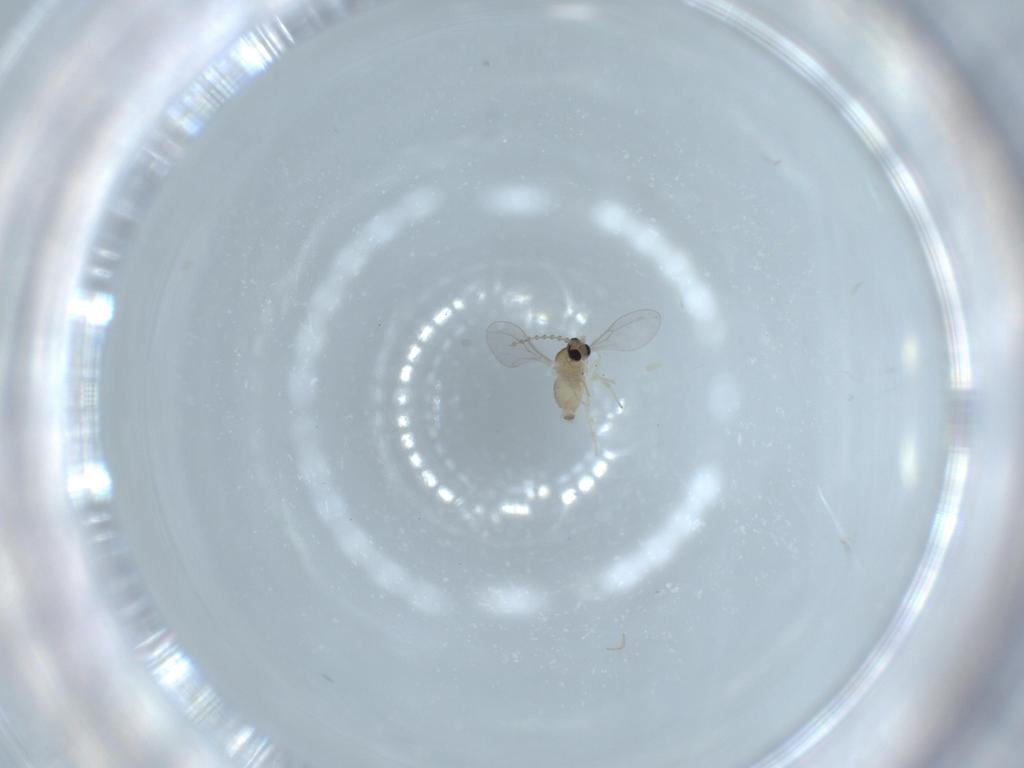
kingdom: Animalia
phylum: Arthropoda
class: Insecta
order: Diptera
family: Cecidomyiidae
